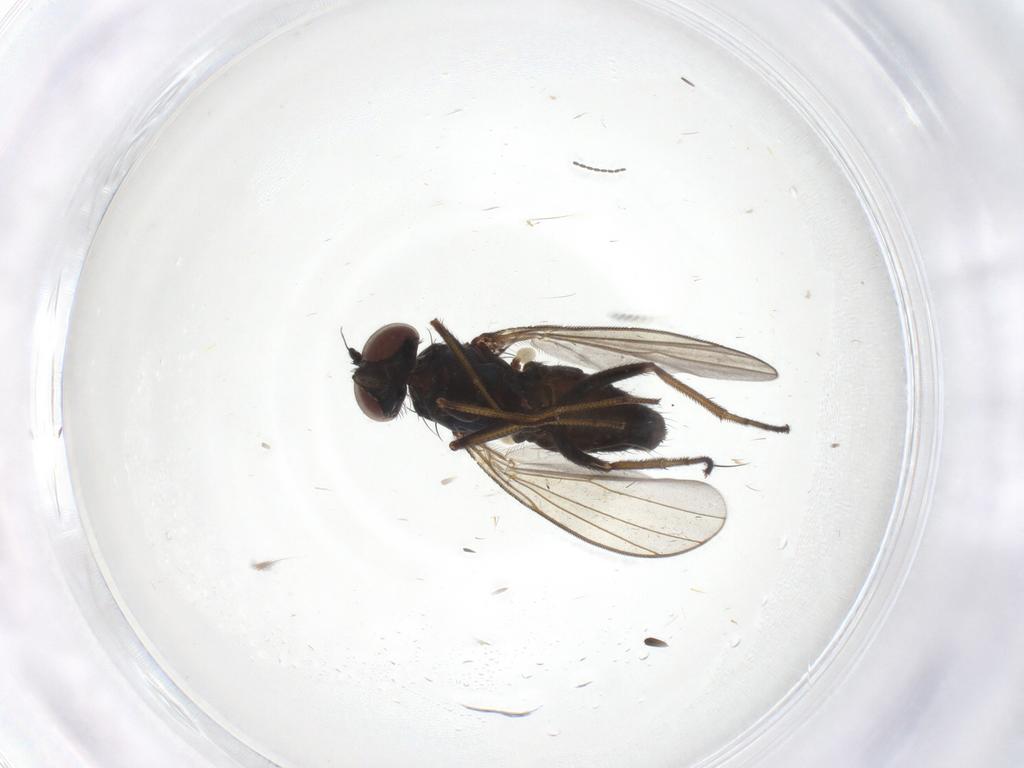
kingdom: Animalia
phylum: Arthropoda
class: Insecta
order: Diptera
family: Dolichopodidae
